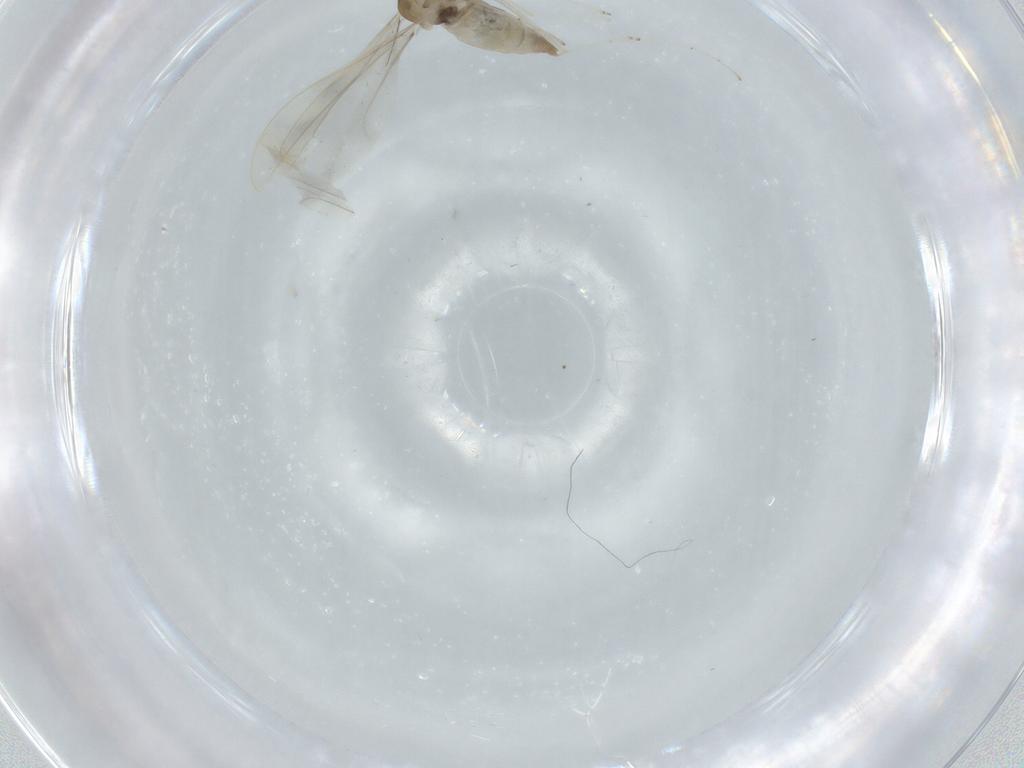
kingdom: Animalia
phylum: Arthropoda
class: Insecta
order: Diptera
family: Cecidomyiidae
